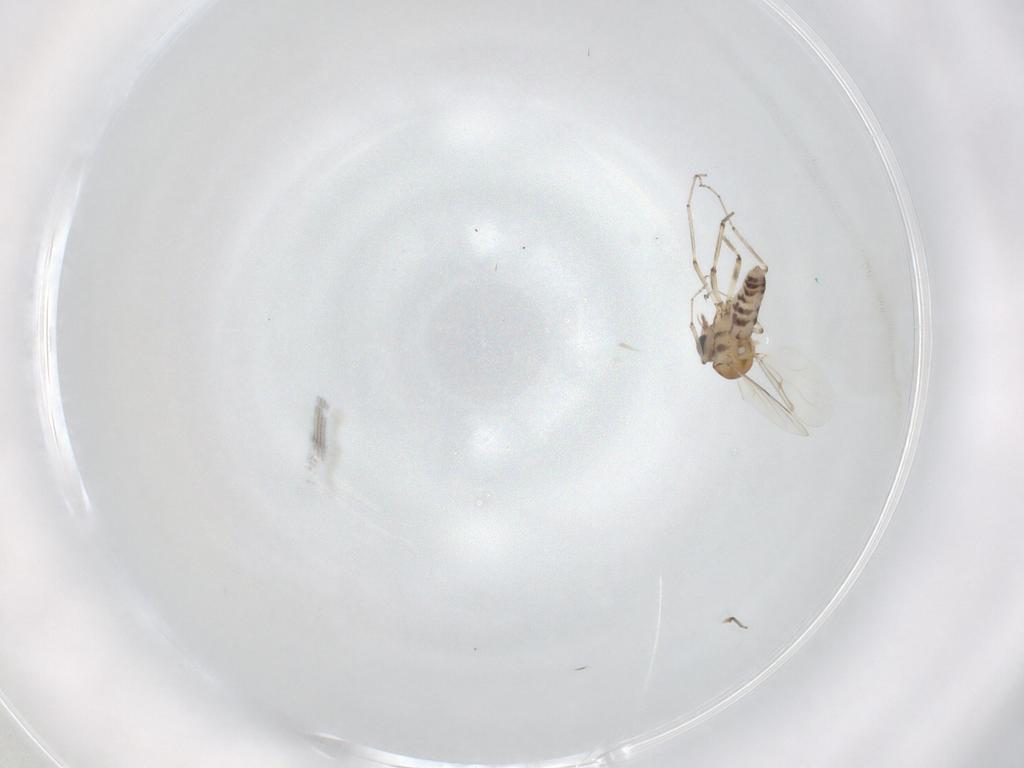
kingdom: Animalia
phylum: Arthropoda
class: Insecta
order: Diptera
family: Ceratopogonidae
